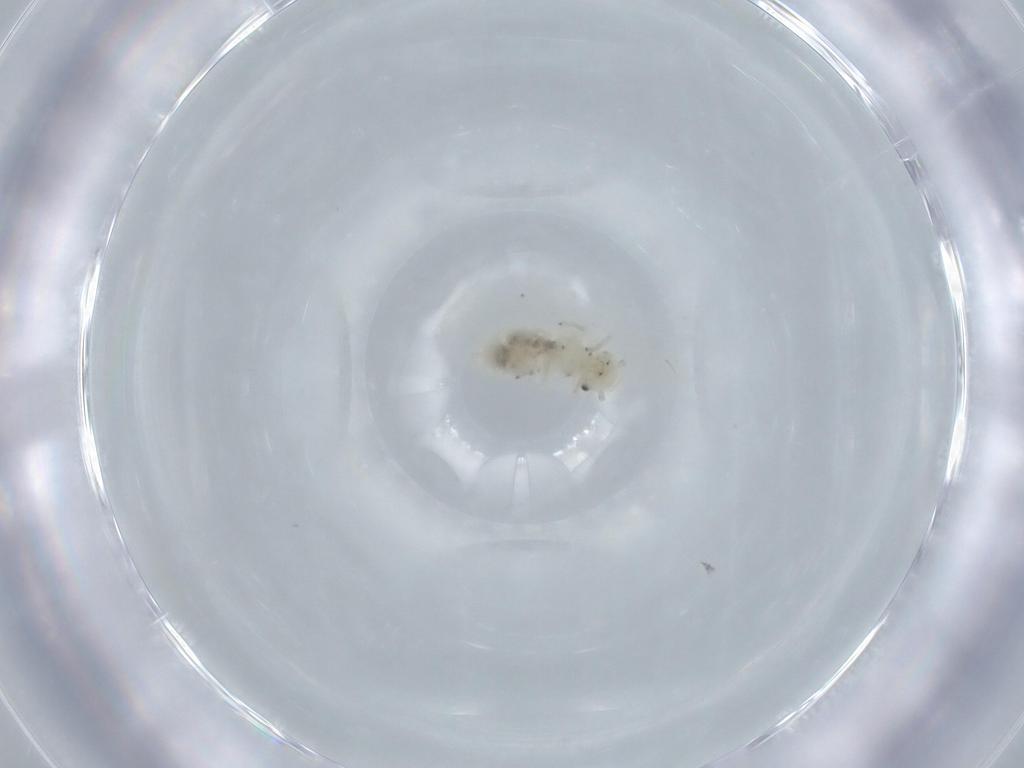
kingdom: Animalia
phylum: Arthropoda
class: Insecta
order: Psocodea
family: Caeciliusidae
